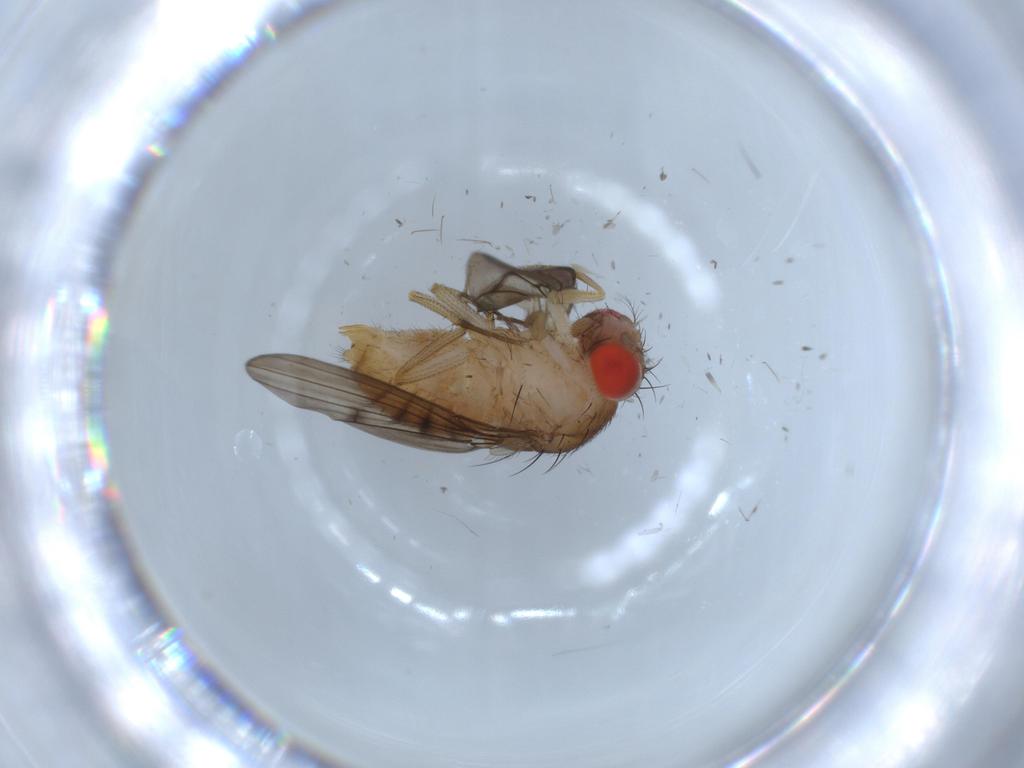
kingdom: Animalia
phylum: Arthropoda
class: Insecta
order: Diptera
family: Drosophilidae
